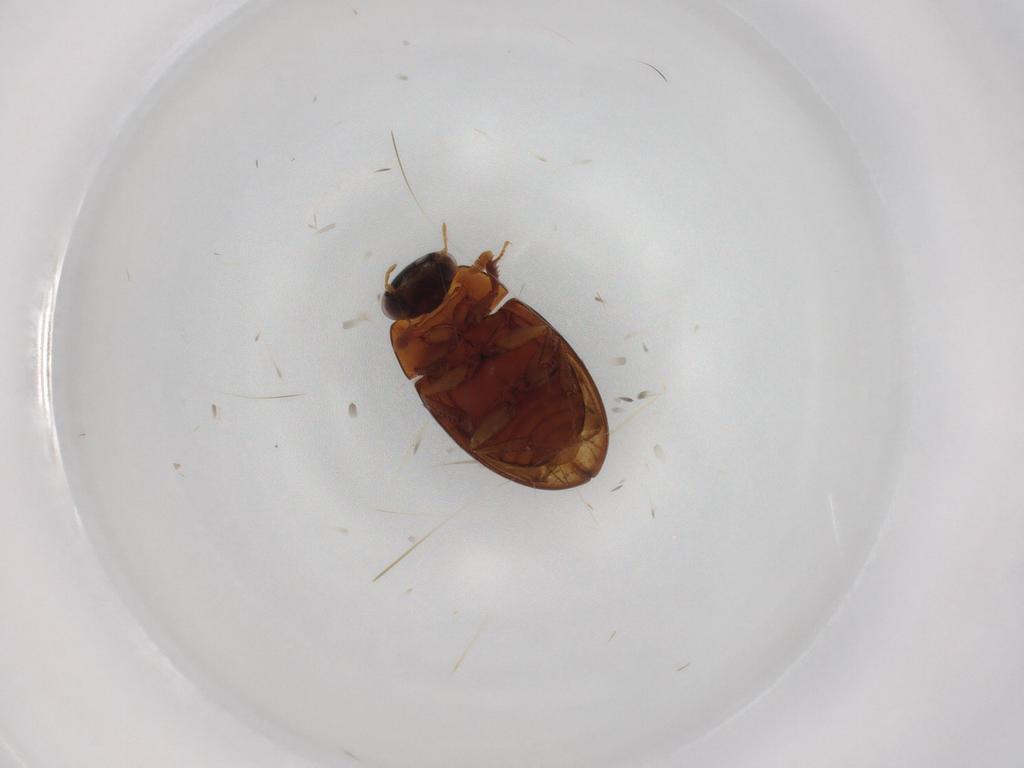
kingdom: Animalia
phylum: Arthropoda
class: Insecta
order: Coleoptera
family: Hydrophilidae
